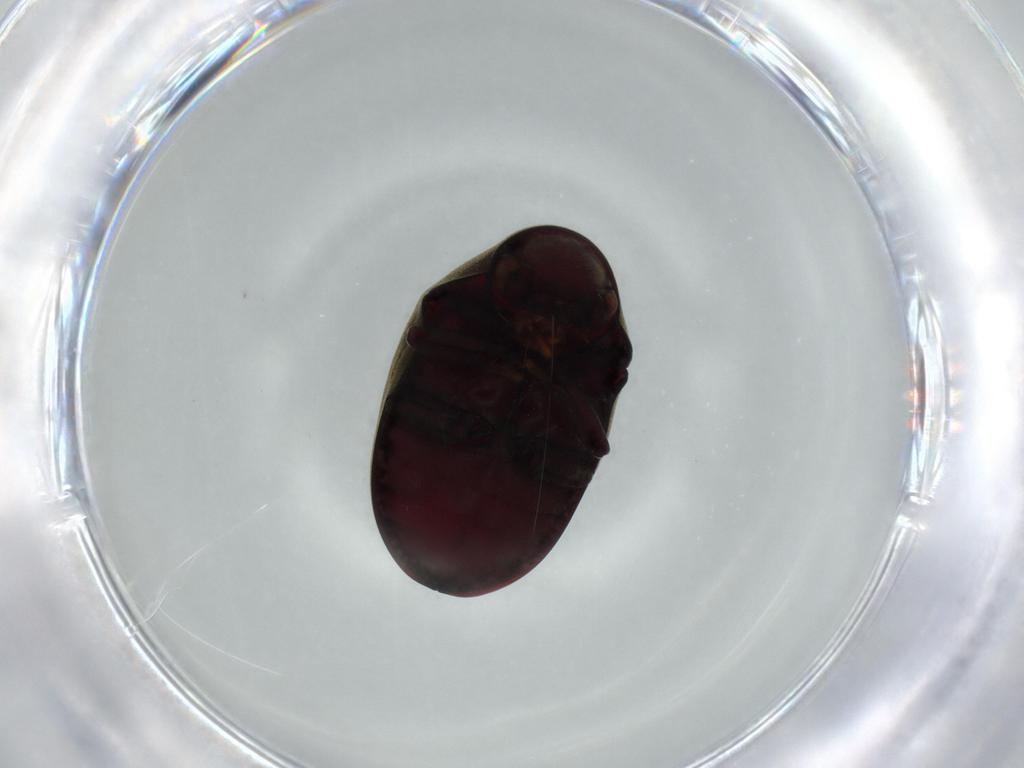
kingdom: Animalia
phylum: Arthropoda
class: Insecta
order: Coleoptera
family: Ptinidae
